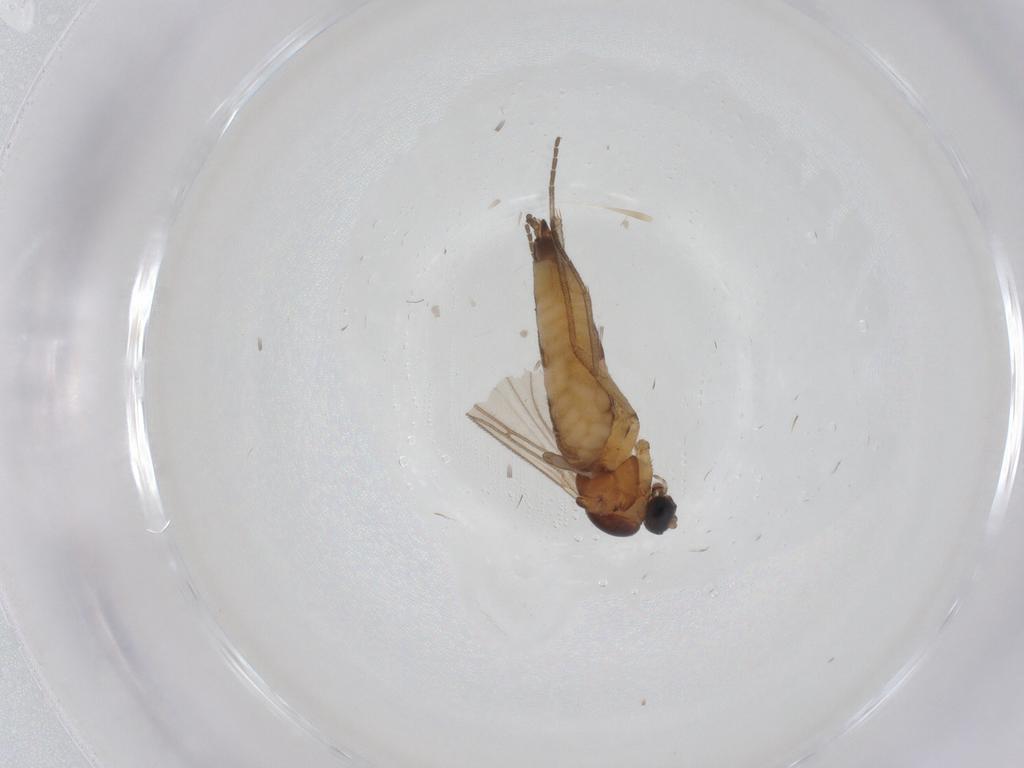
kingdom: Animalia
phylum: Arthropoda
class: Insecta
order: Diptera
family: Sciaridae
